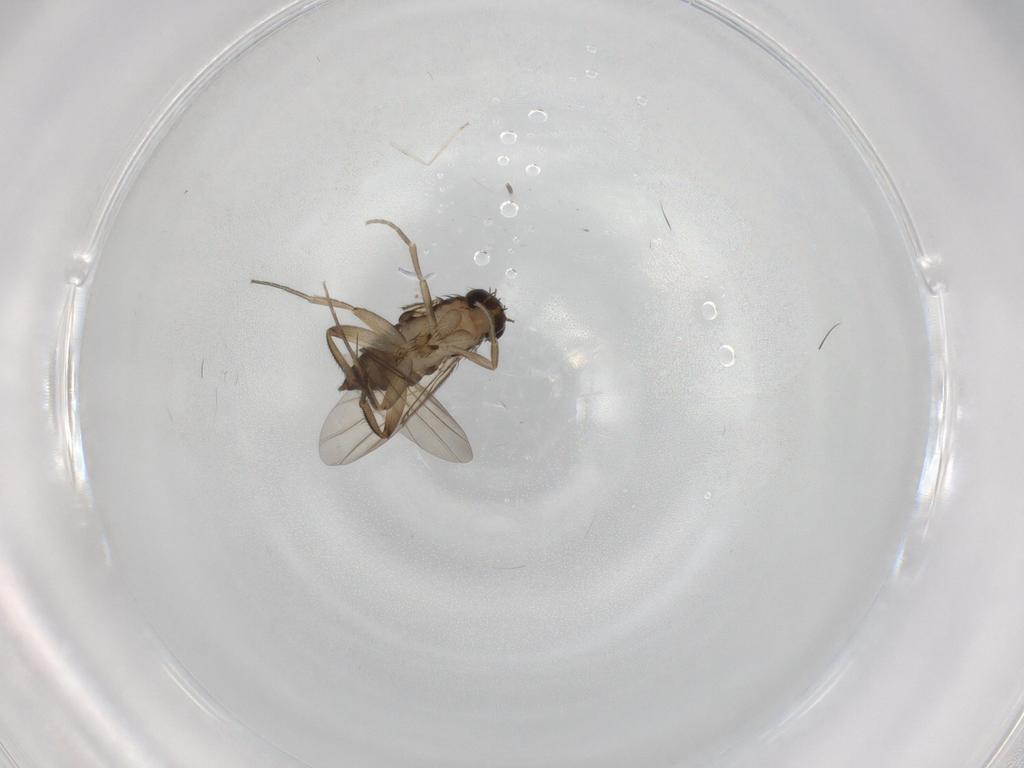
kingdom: Animalia
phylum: Arthropoda
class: Insecta
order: Diptera
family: Phoridae
